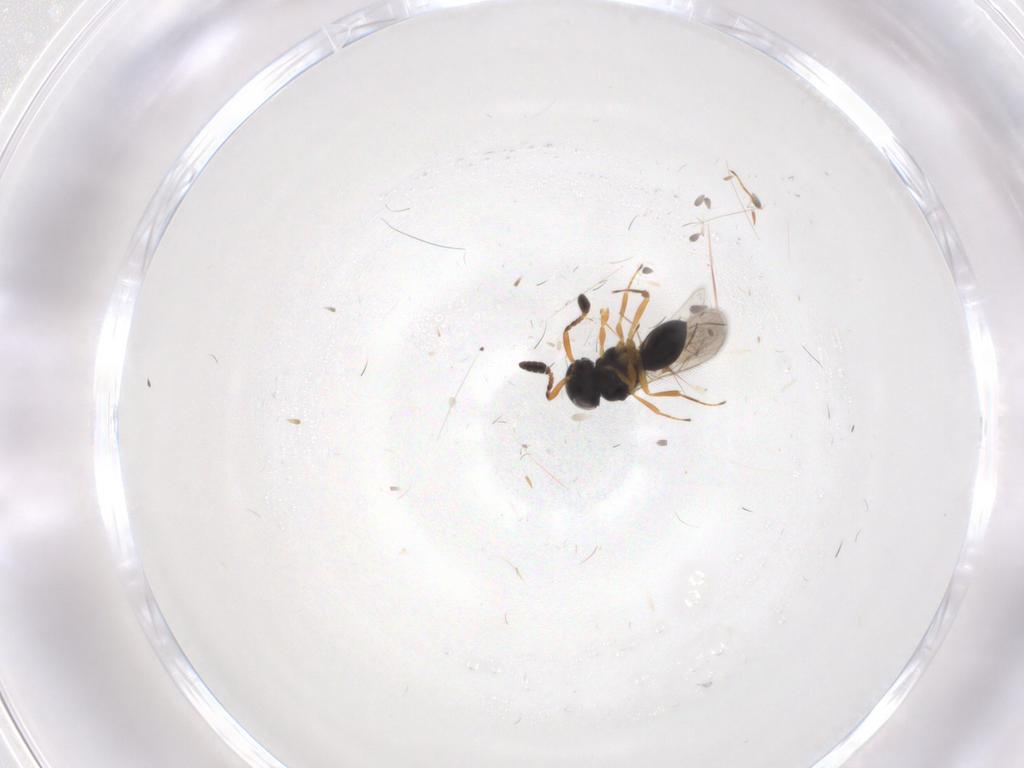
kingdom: Animalia
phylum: Arthropoda
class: Insecta
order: Hymenoptera
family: Scelionidae
